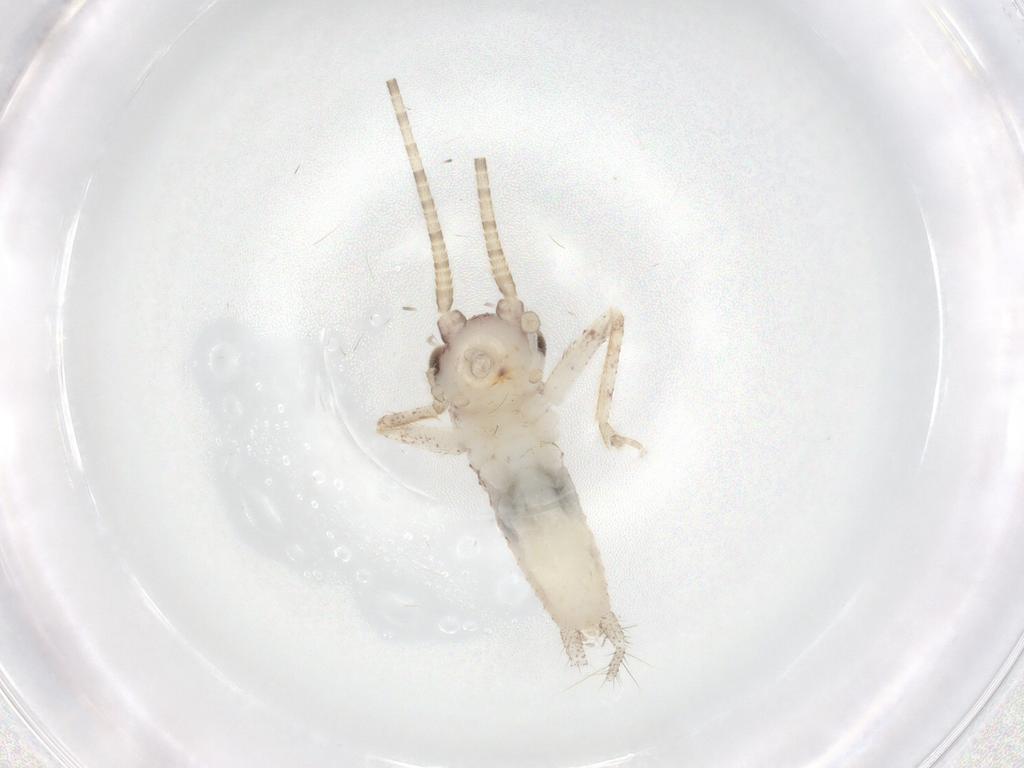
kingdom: Animalia
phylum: Arthropoda
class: Insecta
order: Orthoptera
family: Gryllidae
